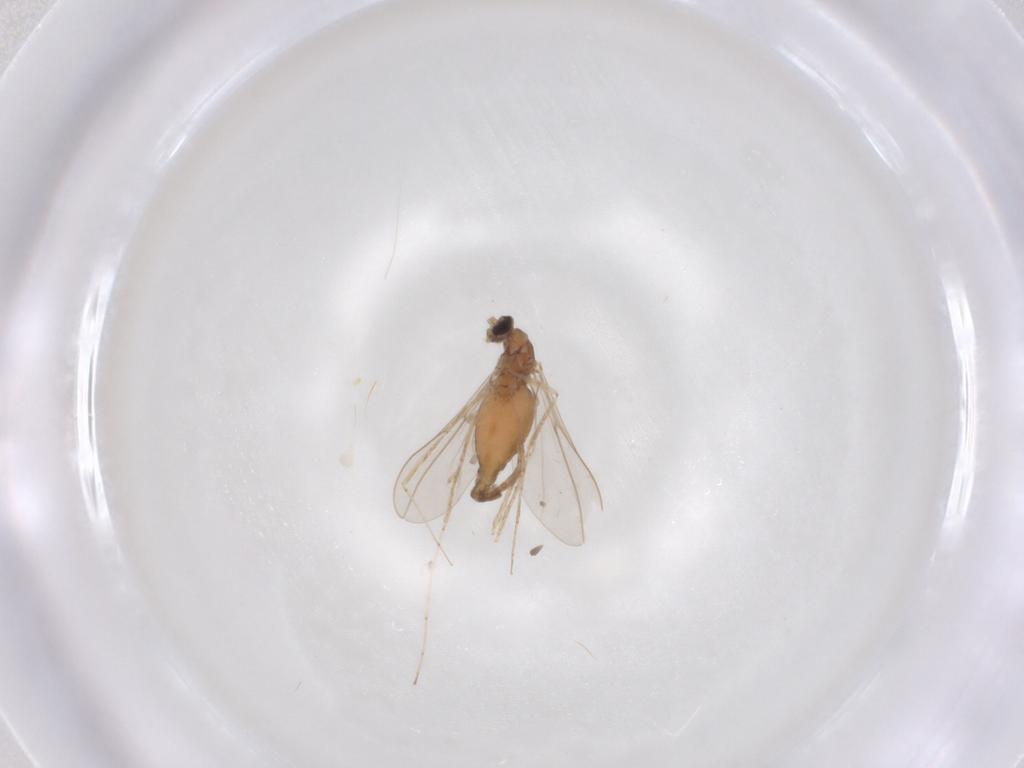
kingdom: Animalia
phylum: Arthropoda
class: Insecta
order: Diptera
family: Cecidomyiidae
